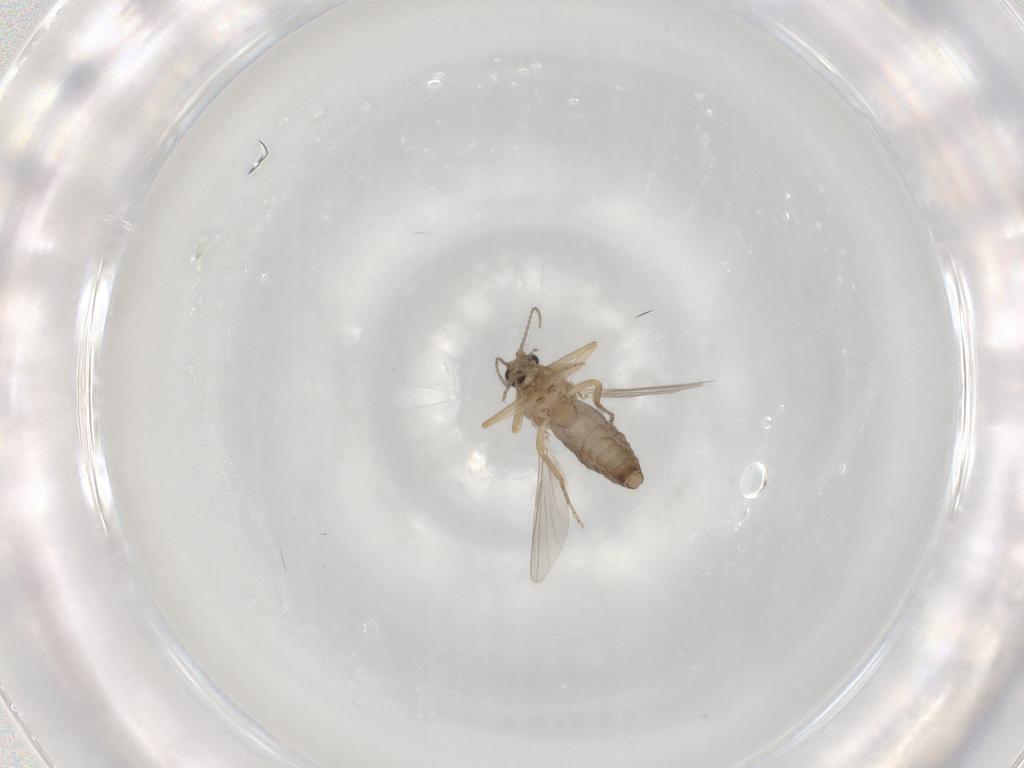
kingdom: Animalia
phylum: Arthropoda
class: Insecta
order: Diptera
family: Ceratopogonidae
